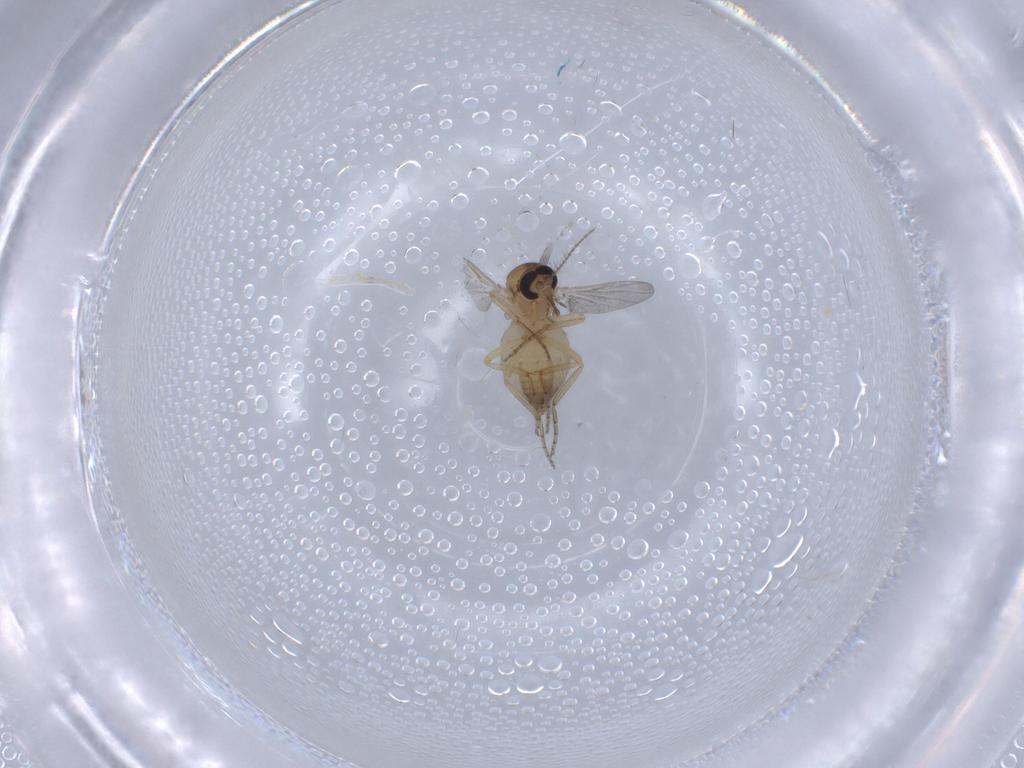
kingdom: Animalia
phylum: Arthropoda
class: Insecta
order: Diptera
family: Ceratopogonidae
